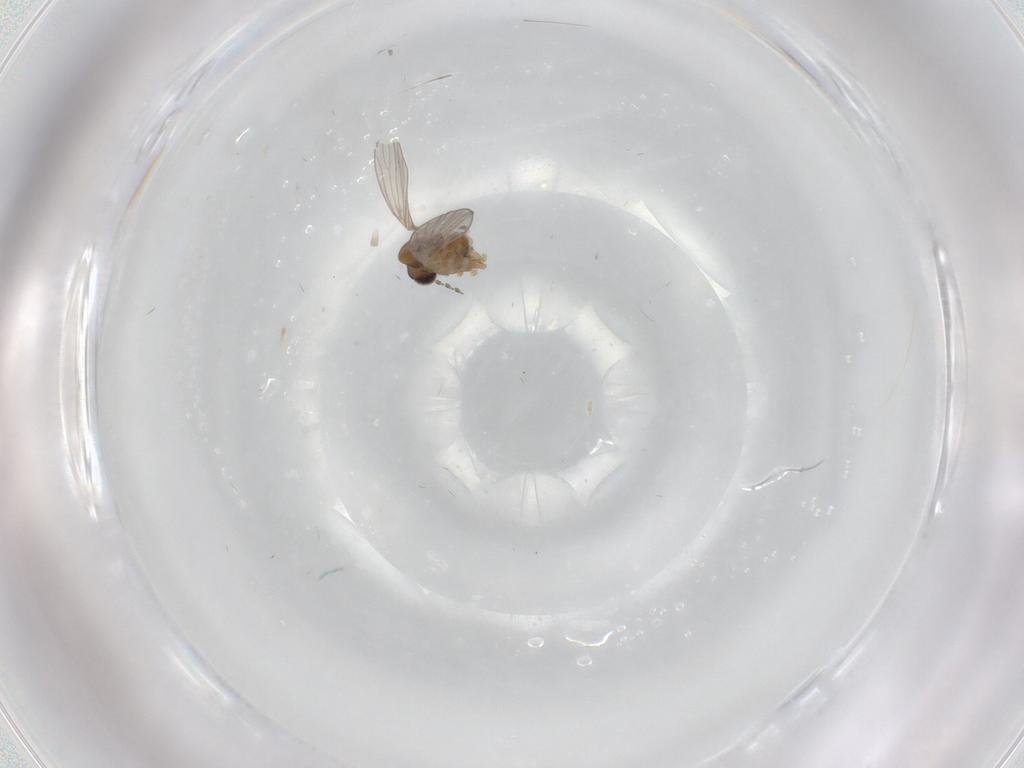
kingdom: Animalia
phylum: Arthropoda
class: Insecta
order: Diptera
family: Psychodidae
